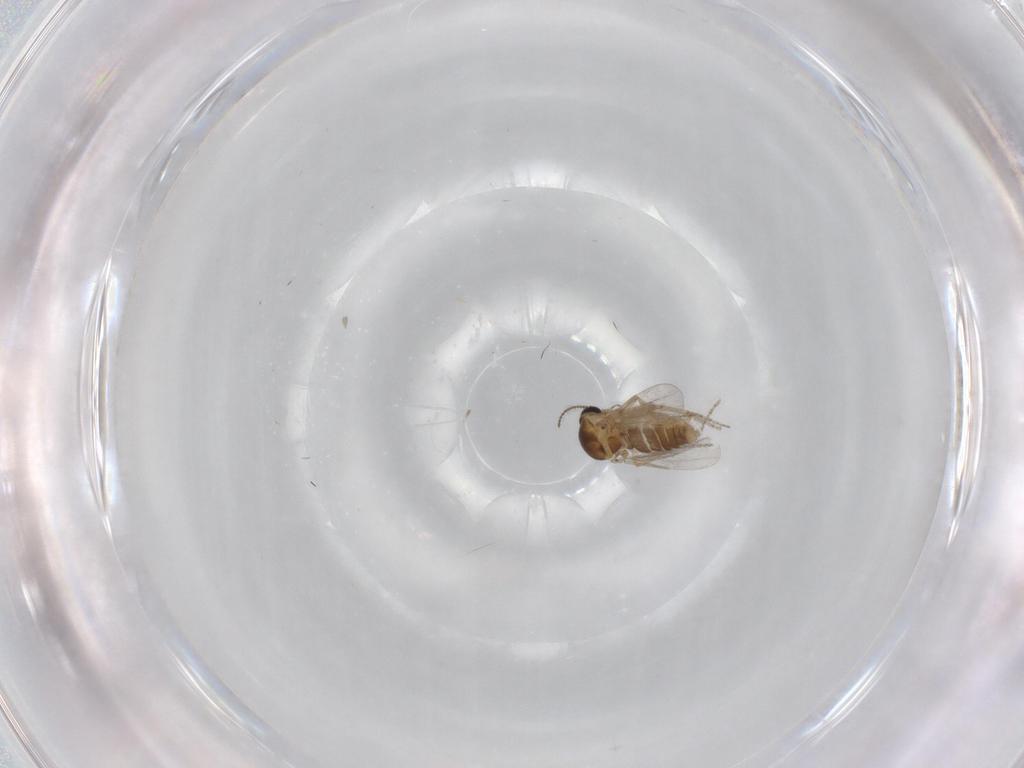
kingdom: Animalia
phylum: Arthropoda
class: Insecta
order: Diptera
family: Ceratopogonidae
